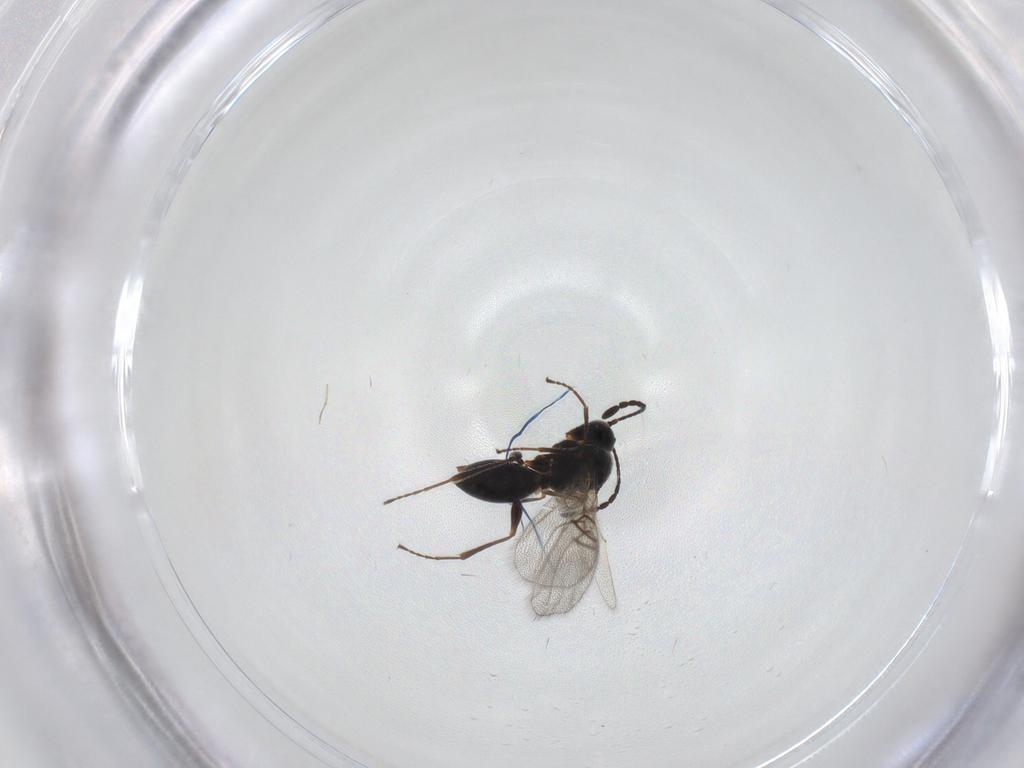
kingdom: Animalia
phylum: Arthropoda
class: Insecta
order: Hymenoptera
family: Figitidae
